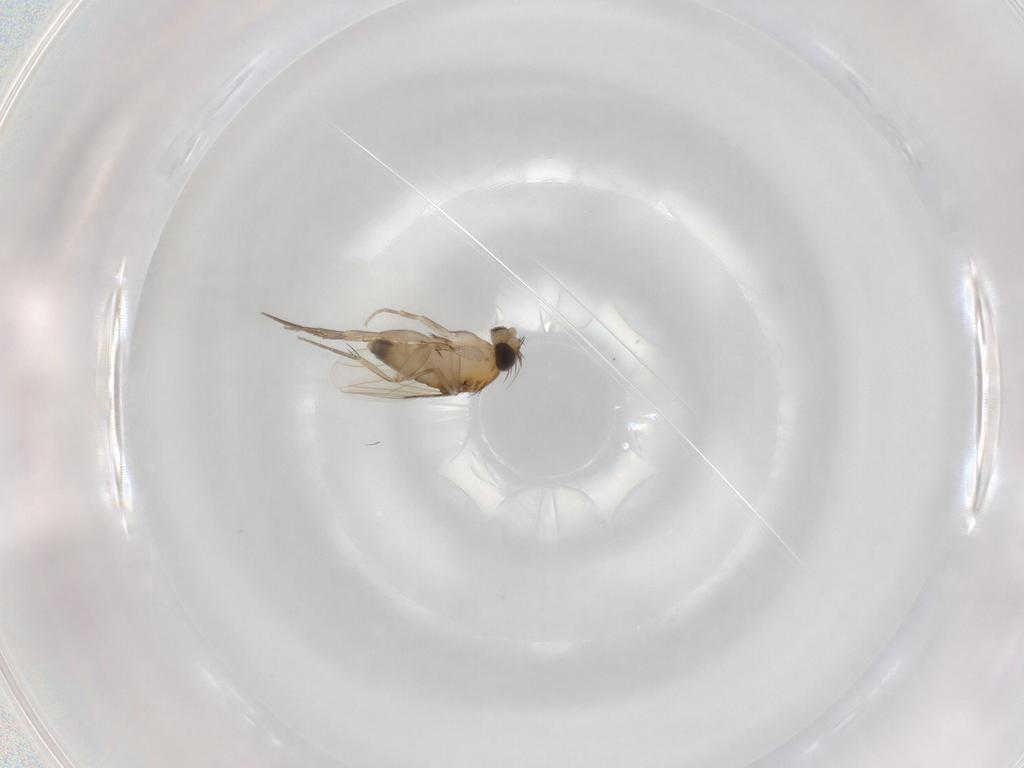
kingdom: Animalia
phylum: Arthropoda
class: Insecta
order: Diptera
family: Phoridae
